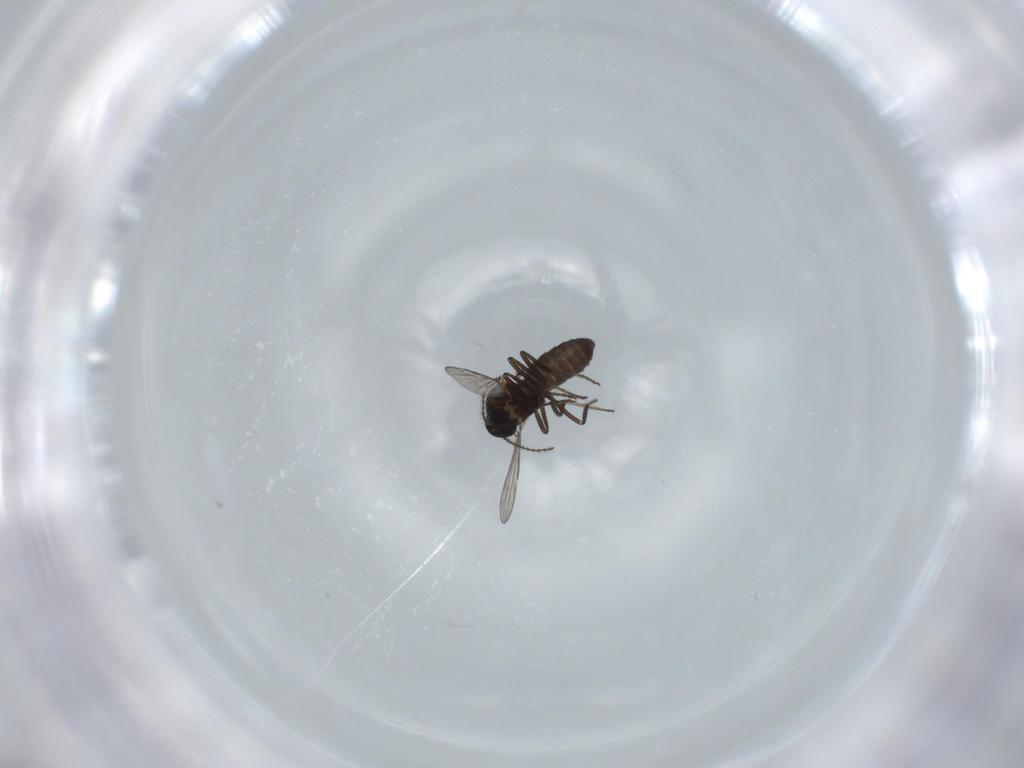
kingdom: Animalia
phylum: Arthropoda
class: Insecta
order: Diptera
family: Ceratopogonidae
